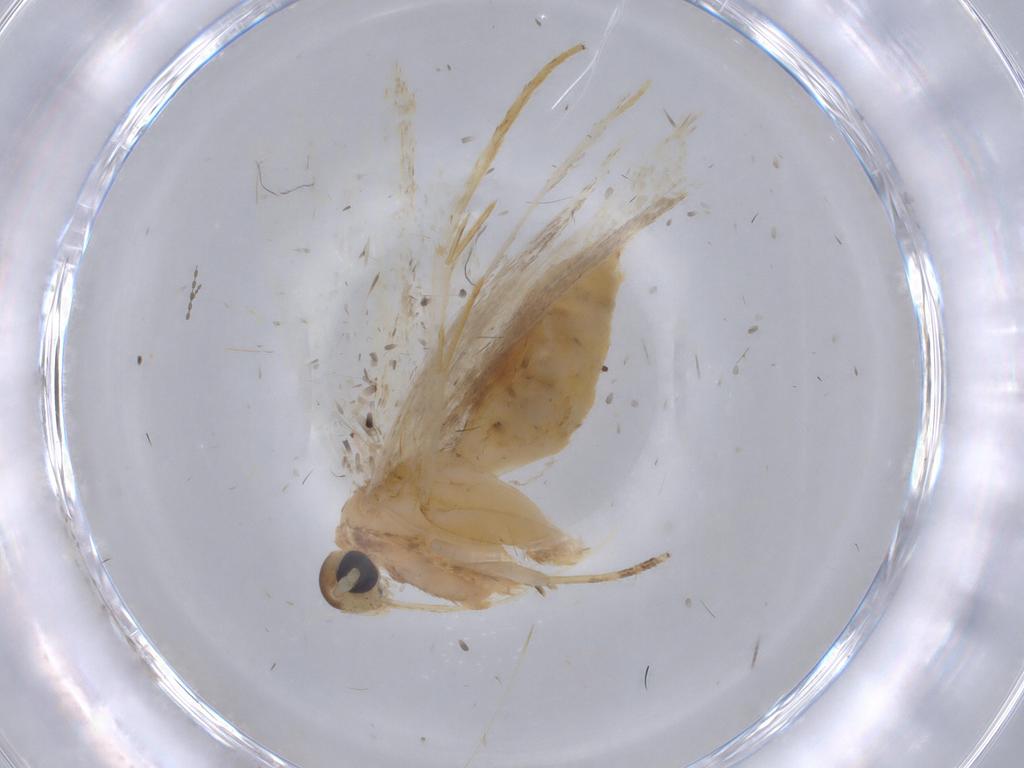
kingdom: Animalia
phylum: Arthropoda
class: Insecta
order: Lepidoptera
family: Lecithoceridae
